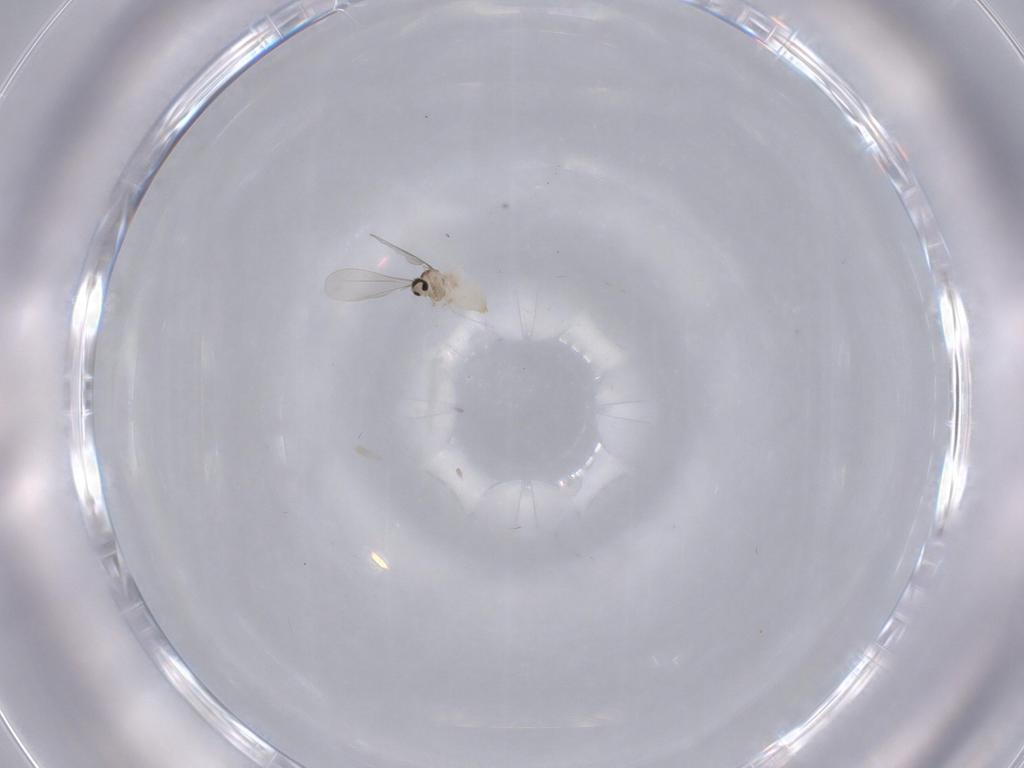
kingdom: Animalia
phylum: Arthropoda
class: Insecta
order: Diptera
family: Cecidomyiidae
